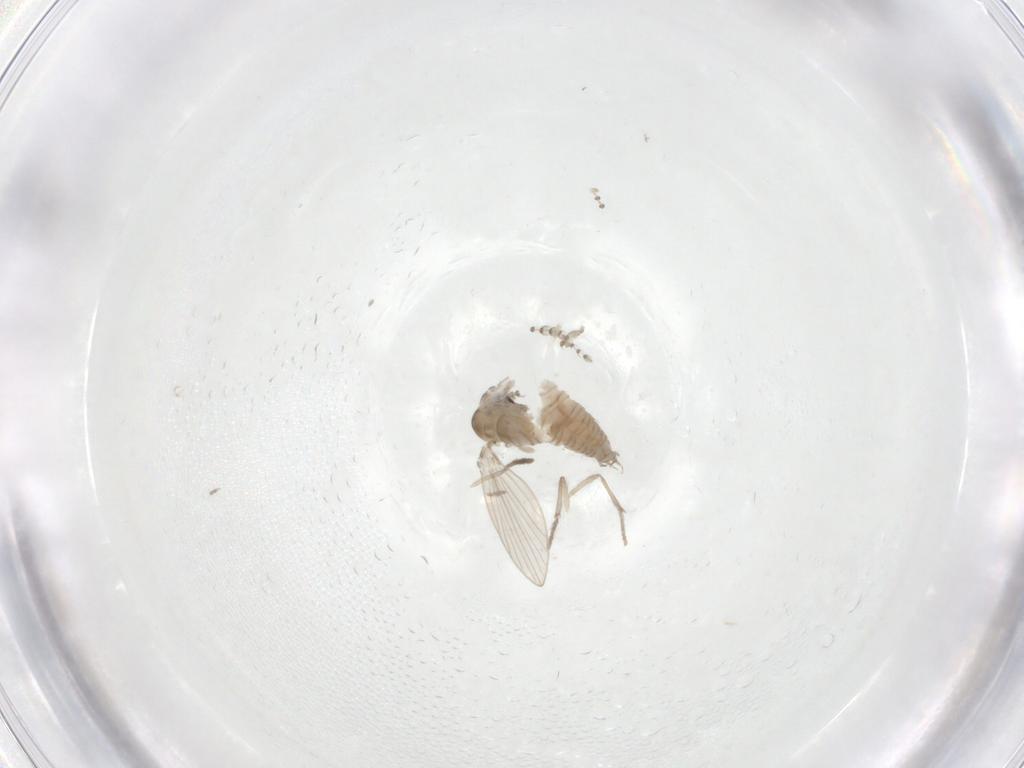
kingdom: Animalia
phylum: Arthropoda
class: Insecta
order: Diptera
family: Psychodidae
